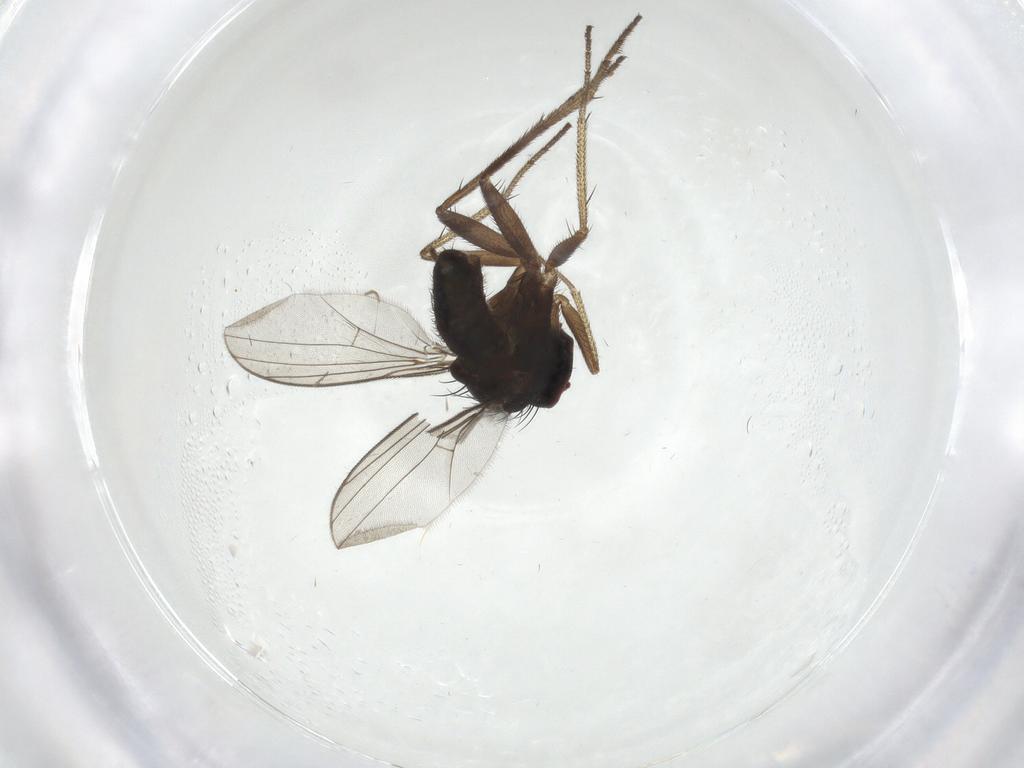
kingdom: Animalia
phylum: Arthropoda
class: Insecta
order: Diptera
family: Dolichopodidae
